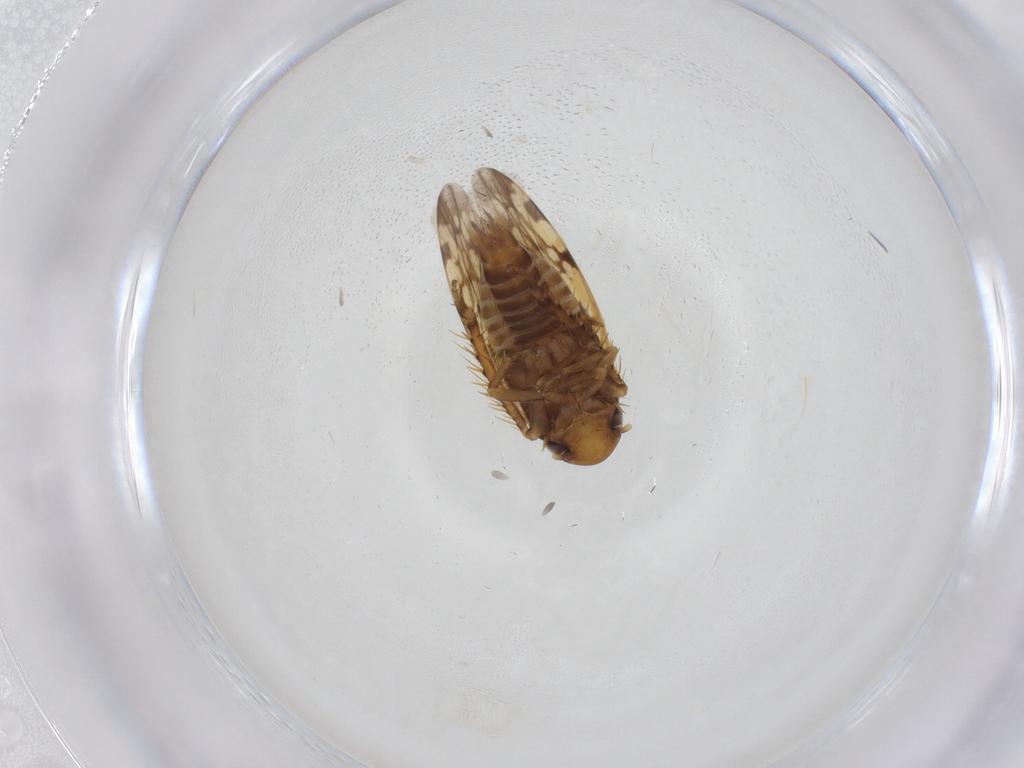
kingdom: Animalia
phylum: Arthropoda
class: Insecta
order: Hemiptera
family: Cicadellidae
